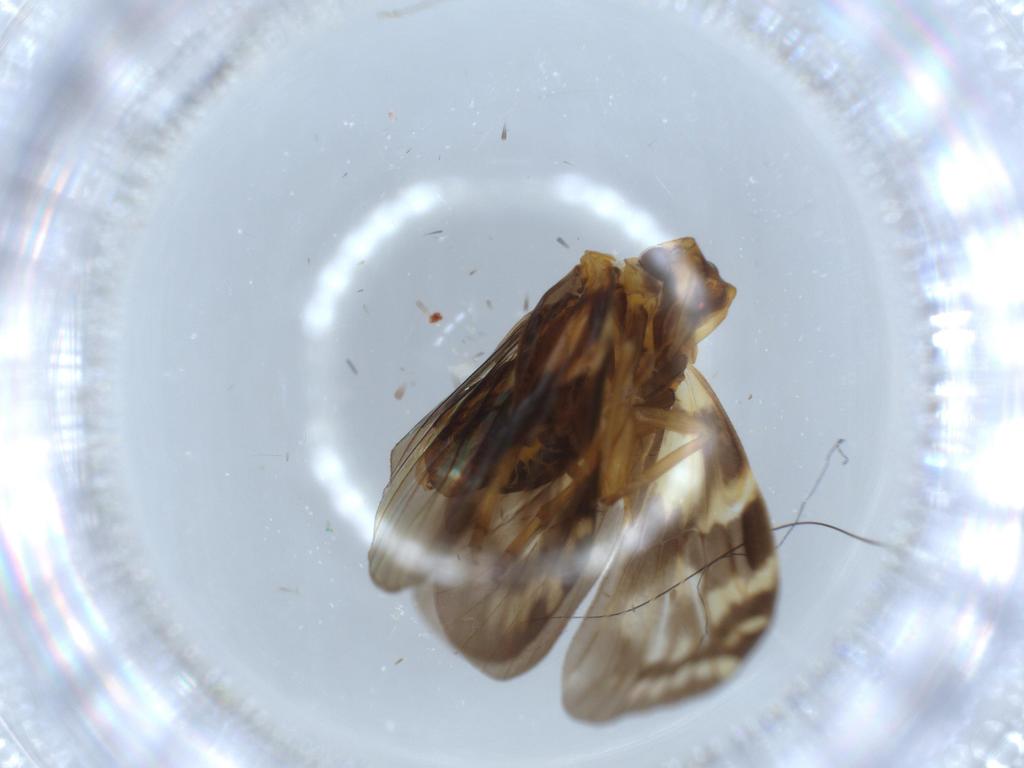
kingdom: Animalia
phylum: Arthropoda
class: Insecta
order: Hemiptera
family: Cixiidae
